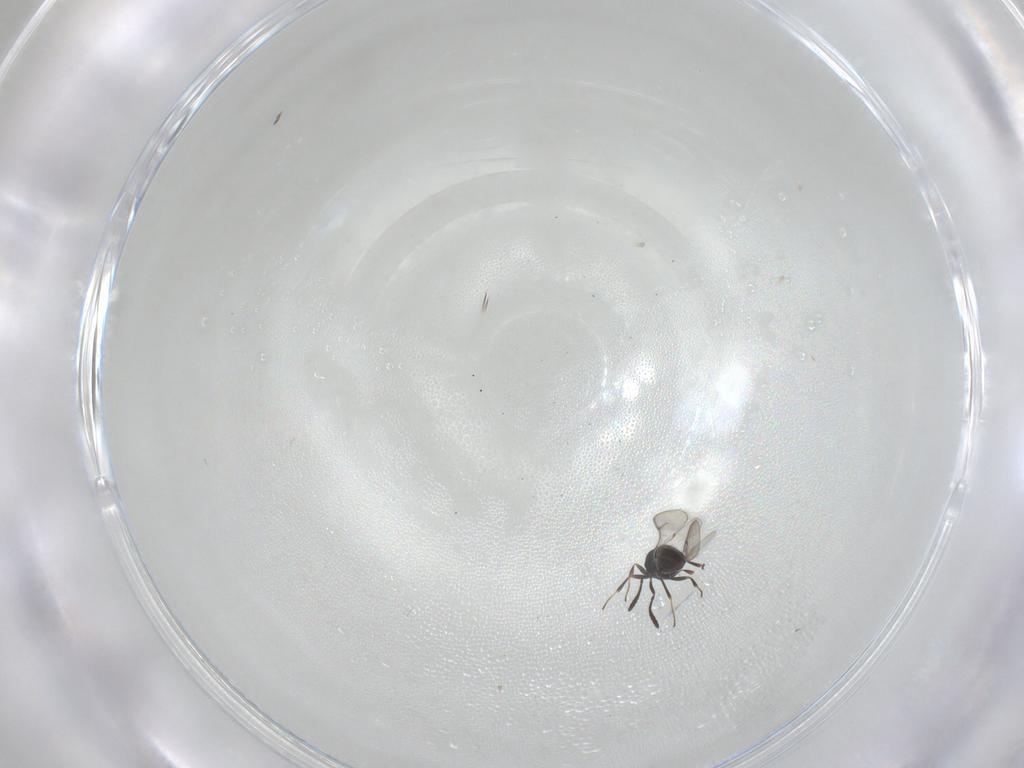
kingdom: Animalia
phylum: Arthropoda
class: Insecta
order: Hymenoptera
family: Scelionidae
